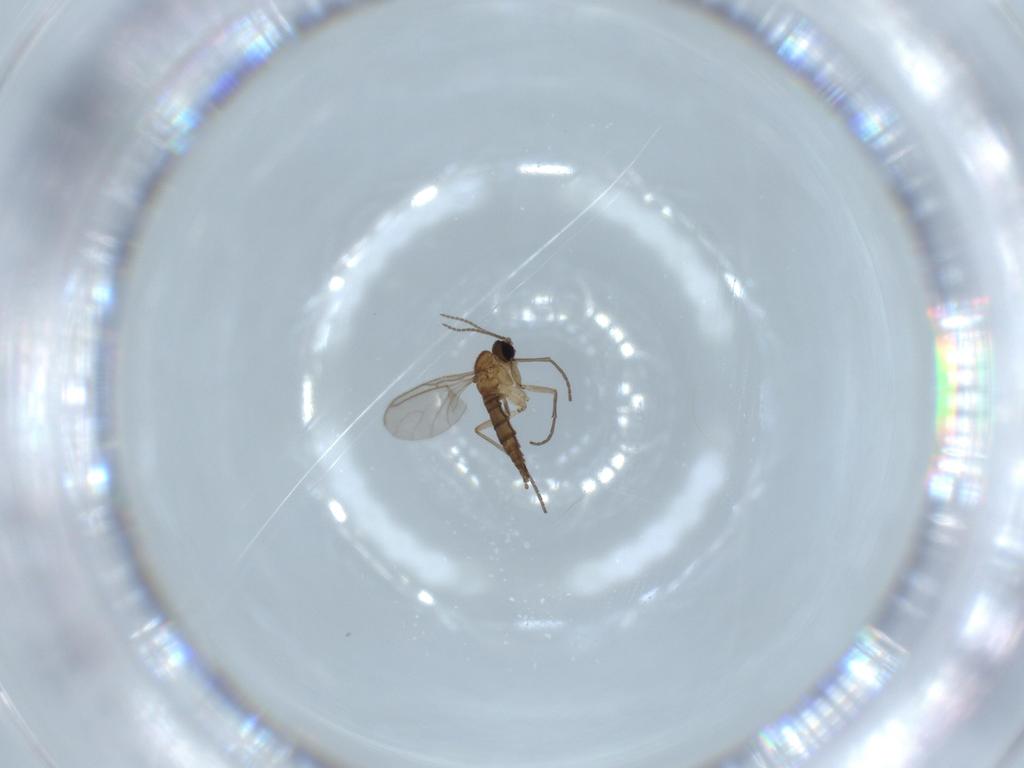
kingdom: Animalia
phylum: Arthropoda
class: Insecta
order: Diptera
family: Sciaridae
